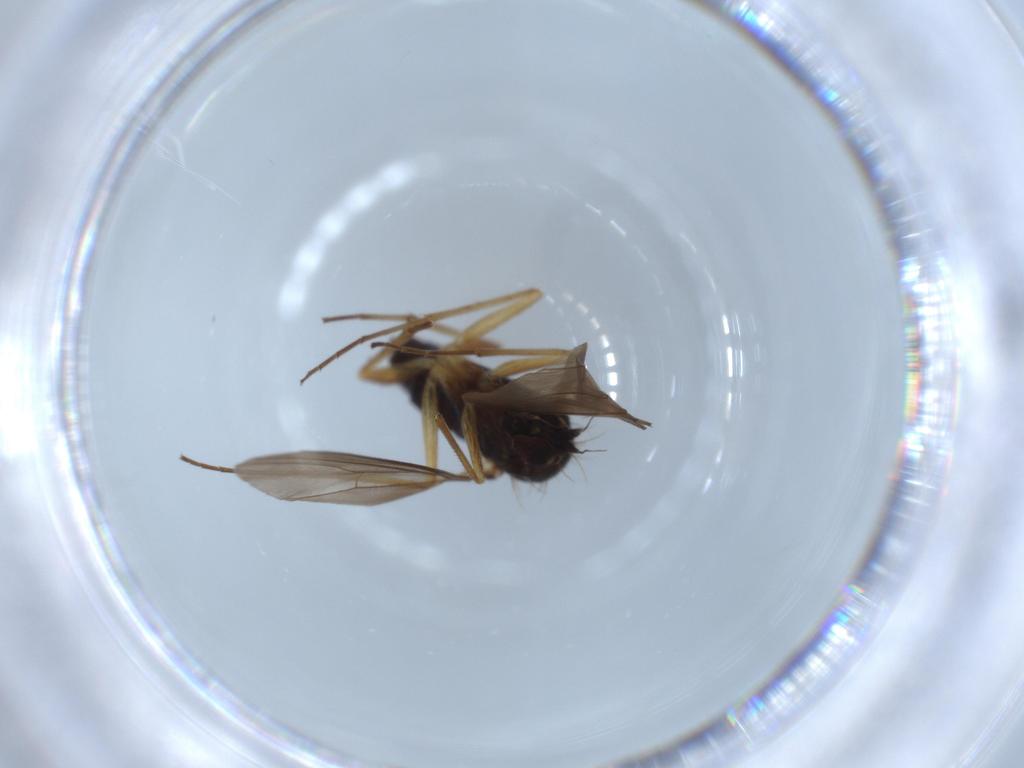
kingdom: Animalia
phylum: Arthropoda
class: Insecta
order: Diptera
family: Dolichopodidae
